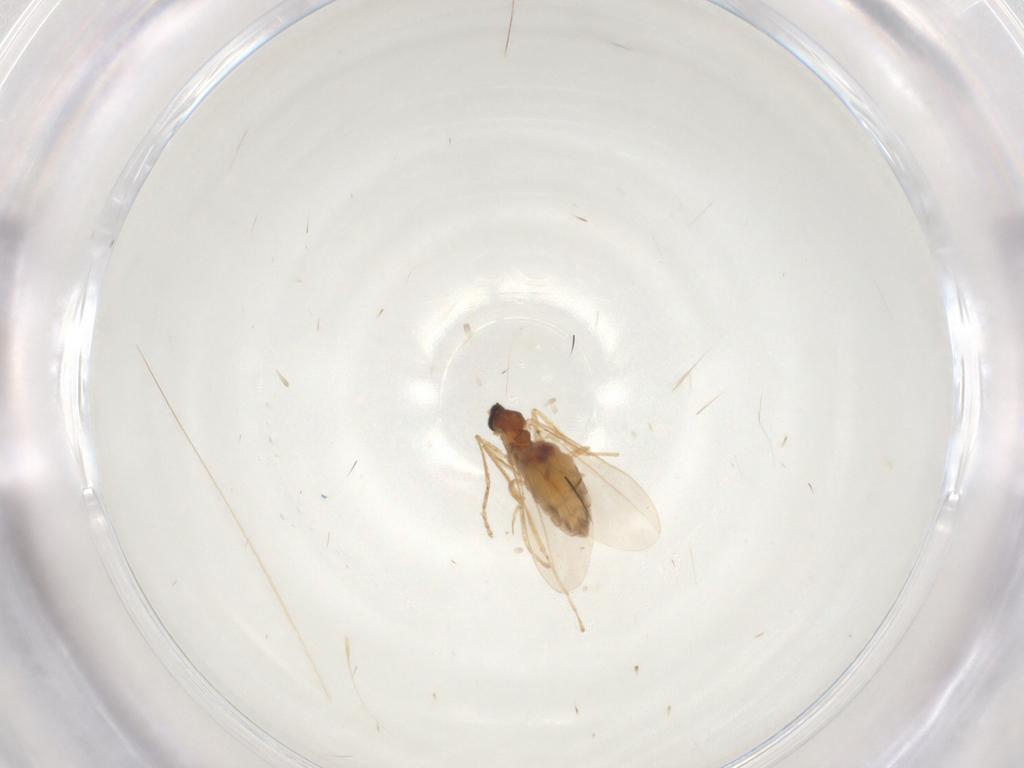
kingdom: Animalia
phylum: Arthropoda
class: Insecta
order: Diptera
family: Cecidomyiidae
